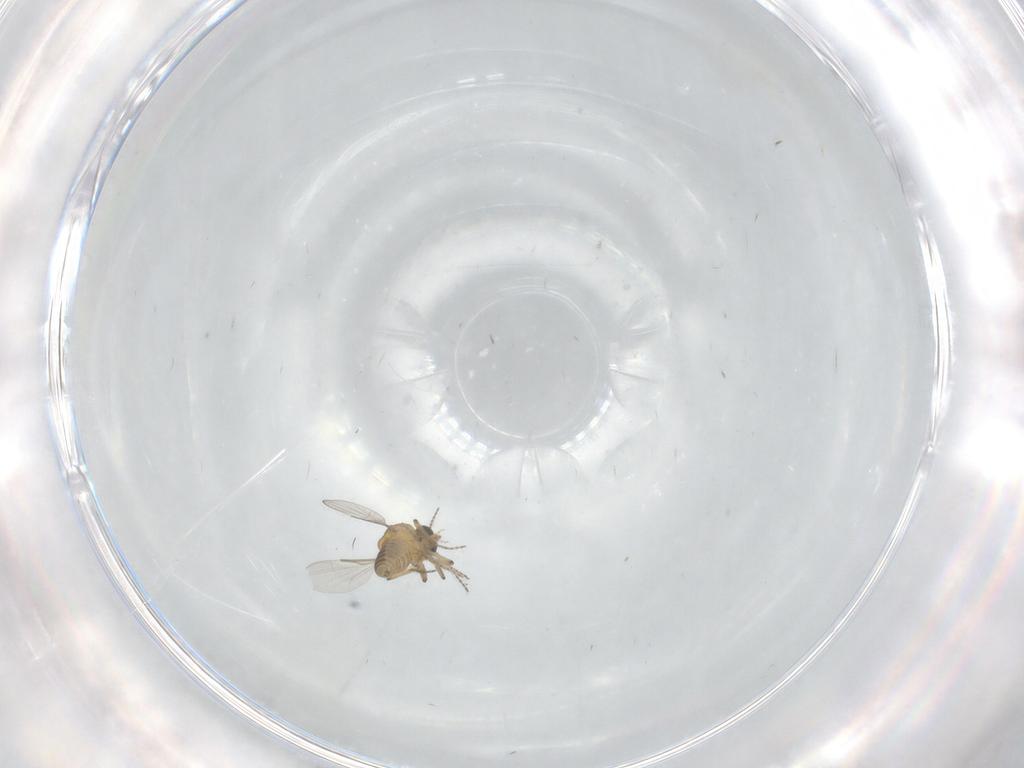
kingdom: Animalia
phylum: Arthropoda
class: Insecta
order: Diptera
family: Ceratopogonidae
